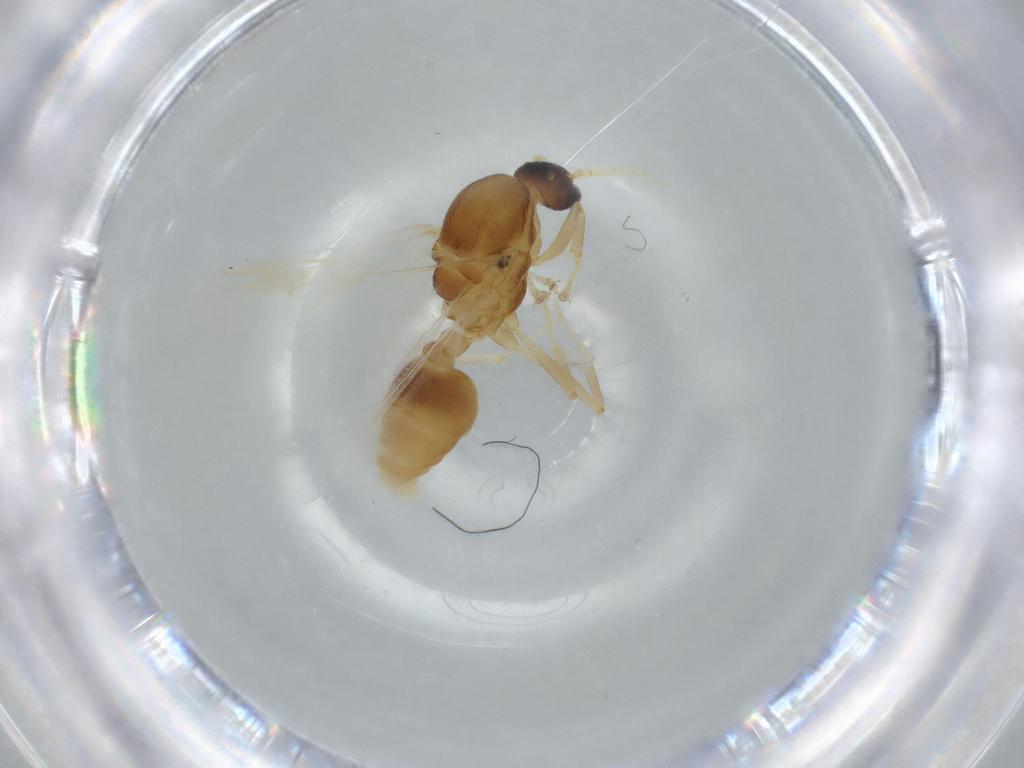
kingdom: Animalia
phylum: Arthropoda
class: Insecta
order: Hymenoptera
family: Formicidae
